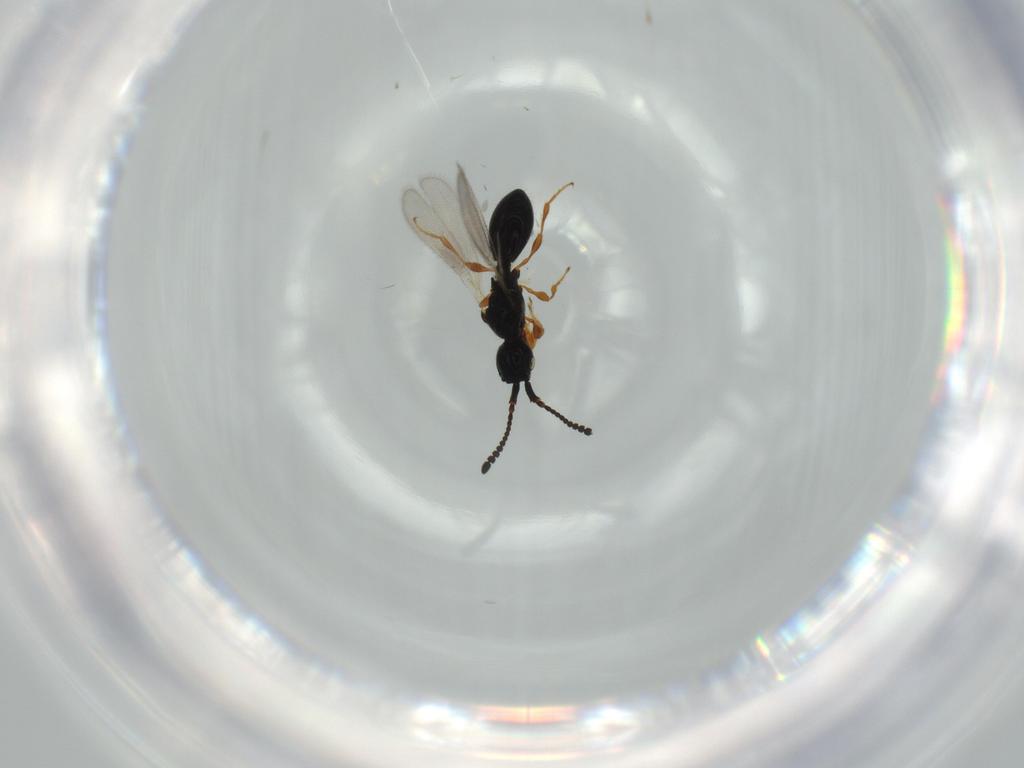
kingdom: Animalia
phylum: Arthropoda
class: Insecta
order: Hymenoptera
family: Diapriidae
